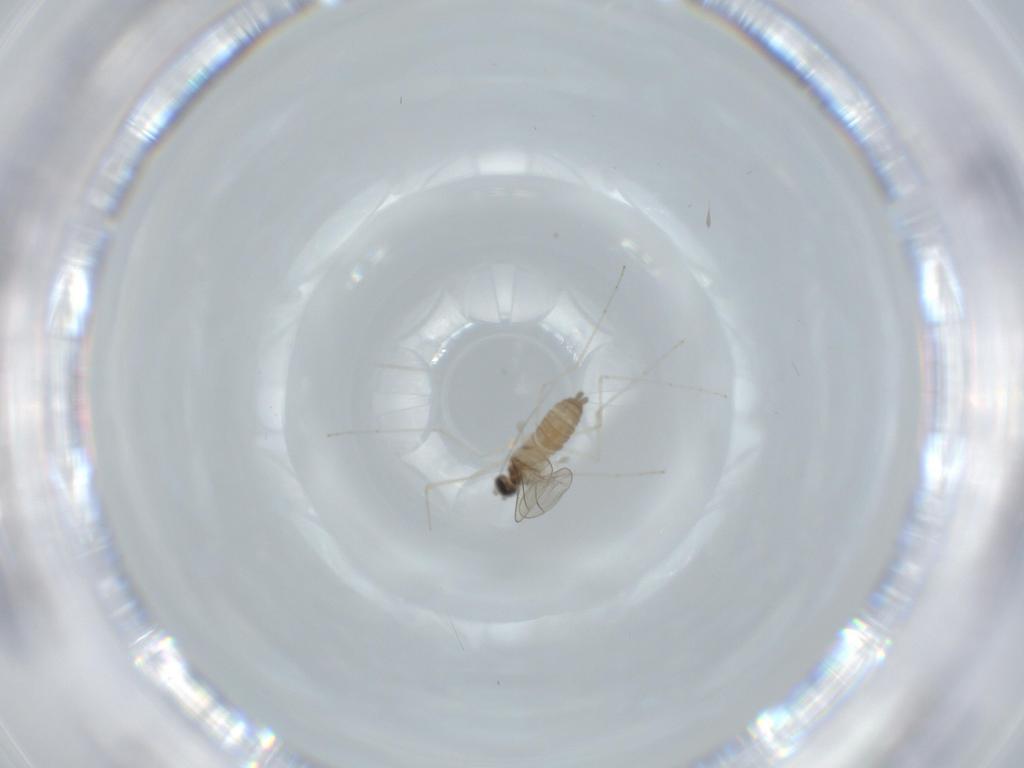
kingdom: Animalia
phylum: Arthropoda
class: Insecta
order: Diptera
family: Cecidomyiidae
